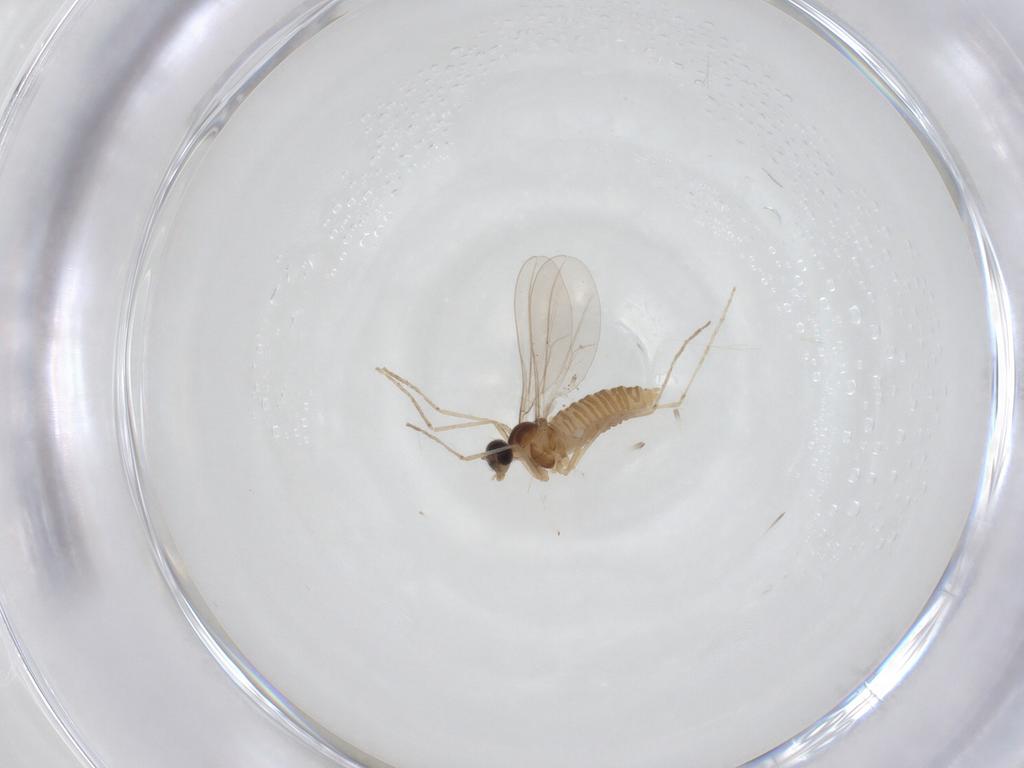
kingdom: Animalia
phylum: Arthropoda
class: Insecta
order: Diptera
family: Cecidomyiidae
